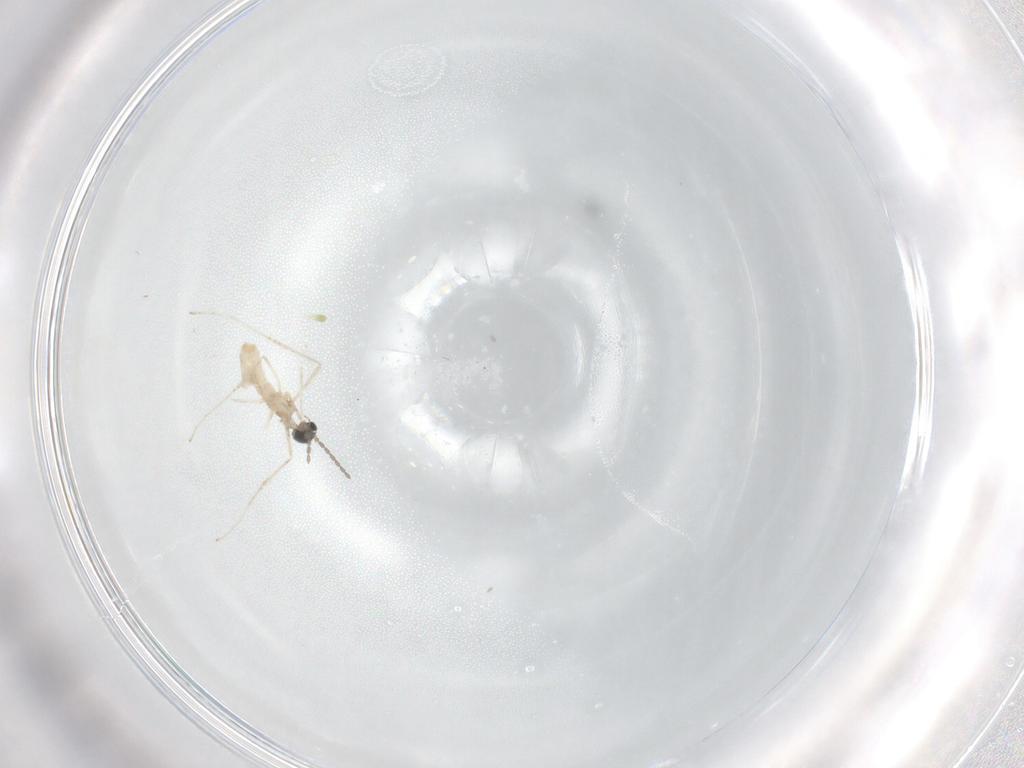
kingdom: Animalia
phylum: Arthropoda
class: Insecta
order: Diptera
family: Cecidomyiidae
